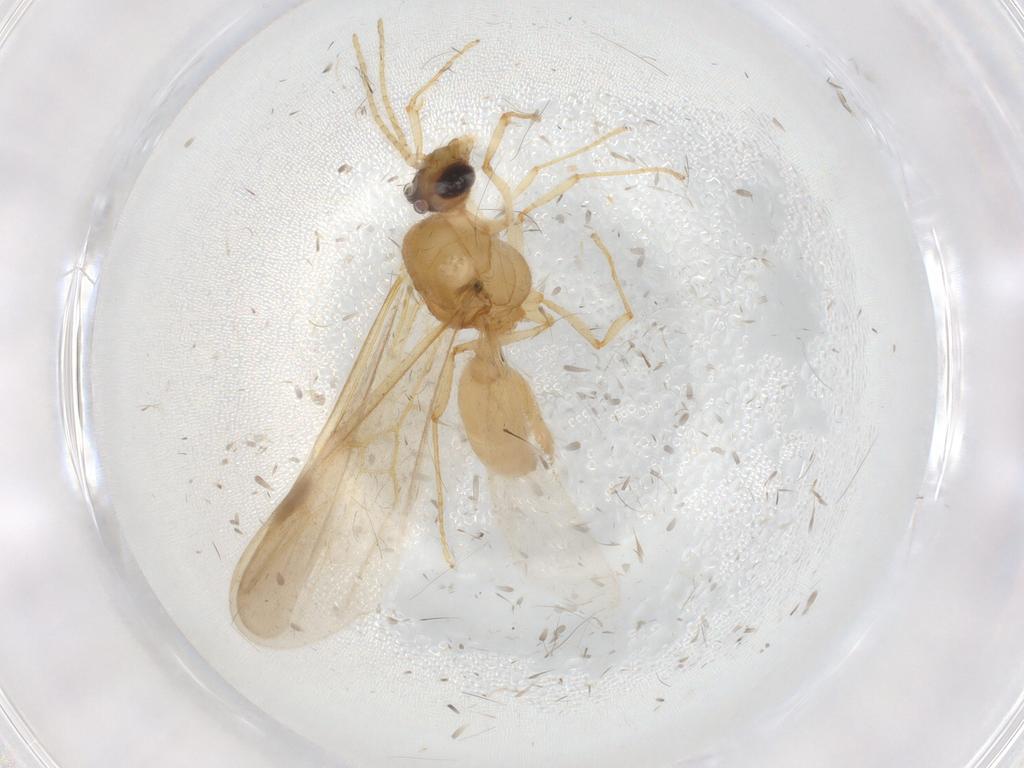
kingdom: Animalia
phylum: Arthropoda
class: Insecta
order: Hymenoptera
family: Formicidae
